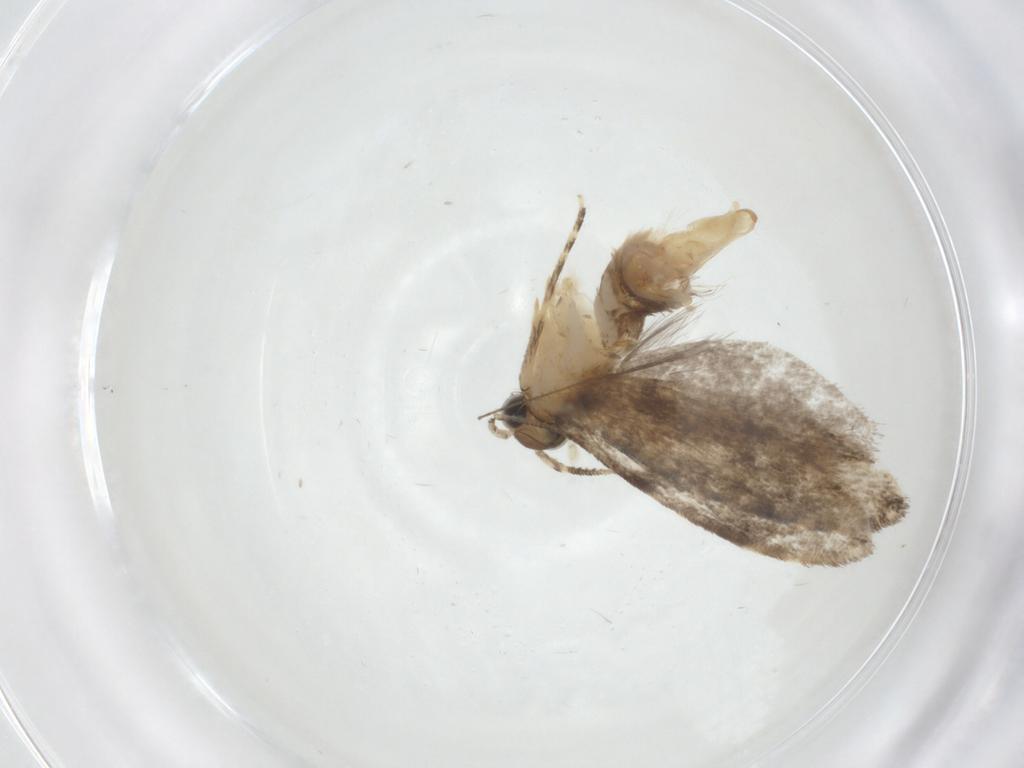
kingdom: Animalia
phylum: Arthropoda
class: Insecta
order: Lepidoptera
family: Tineidae
